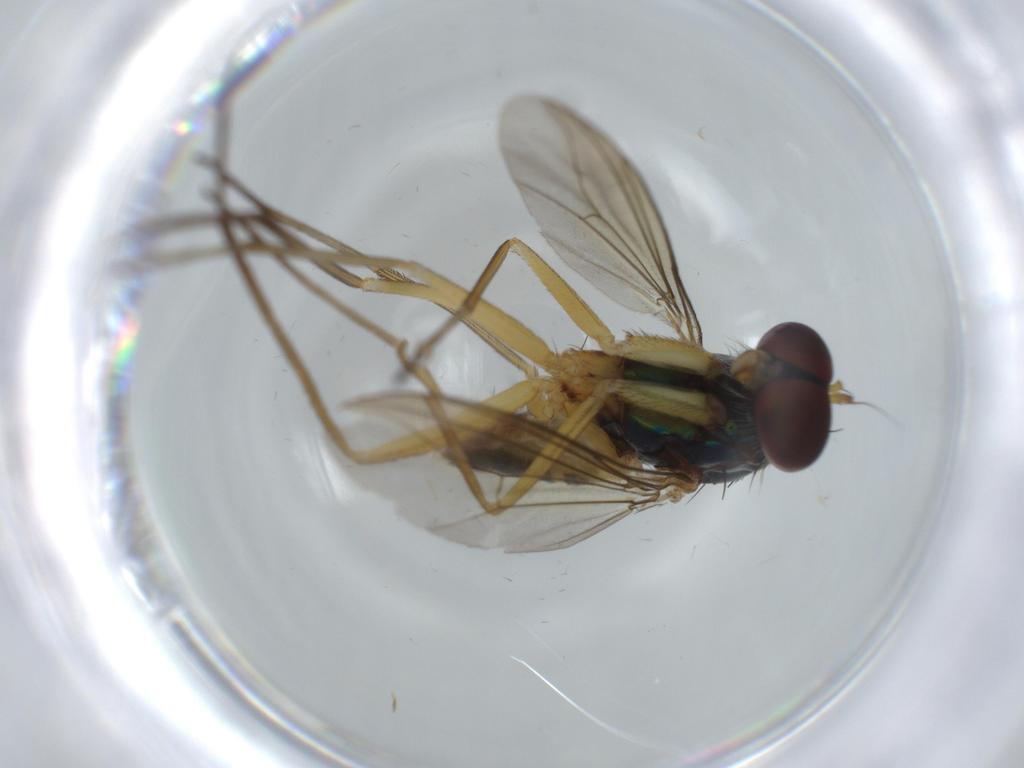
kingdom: Animalia
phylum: Arthropoda
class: Insecta
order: Diptera
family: Dolichopodidae
